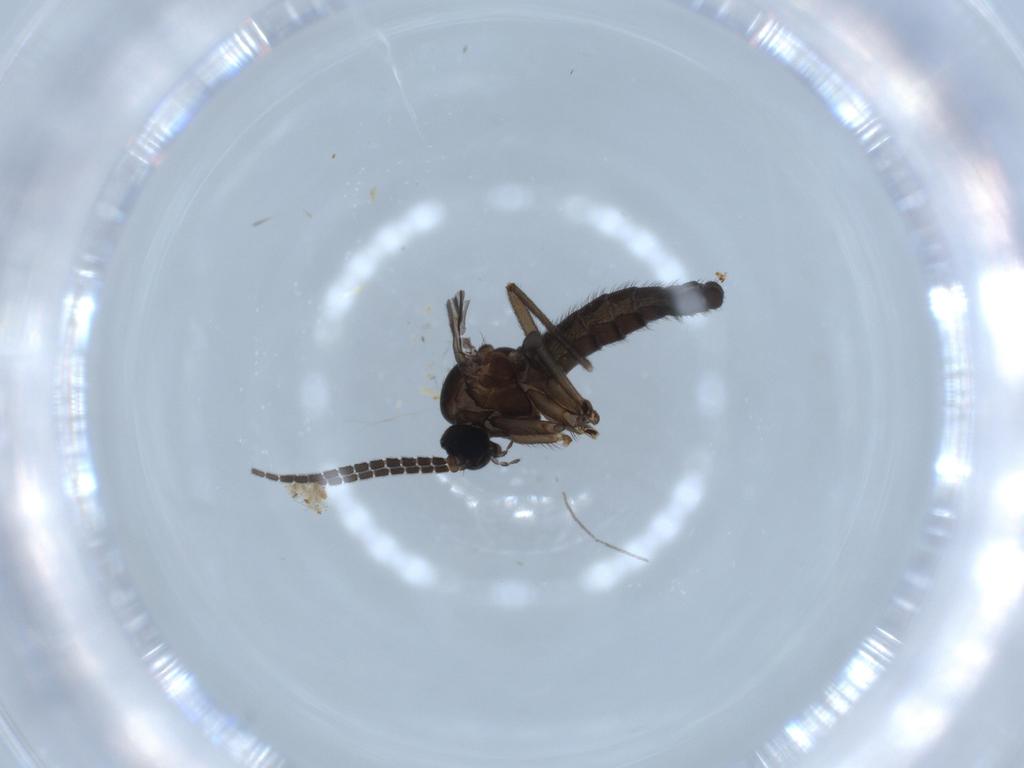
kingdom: Animalia
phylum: Arthropoda
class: Insecta
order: Diptera
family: Sciaridae
